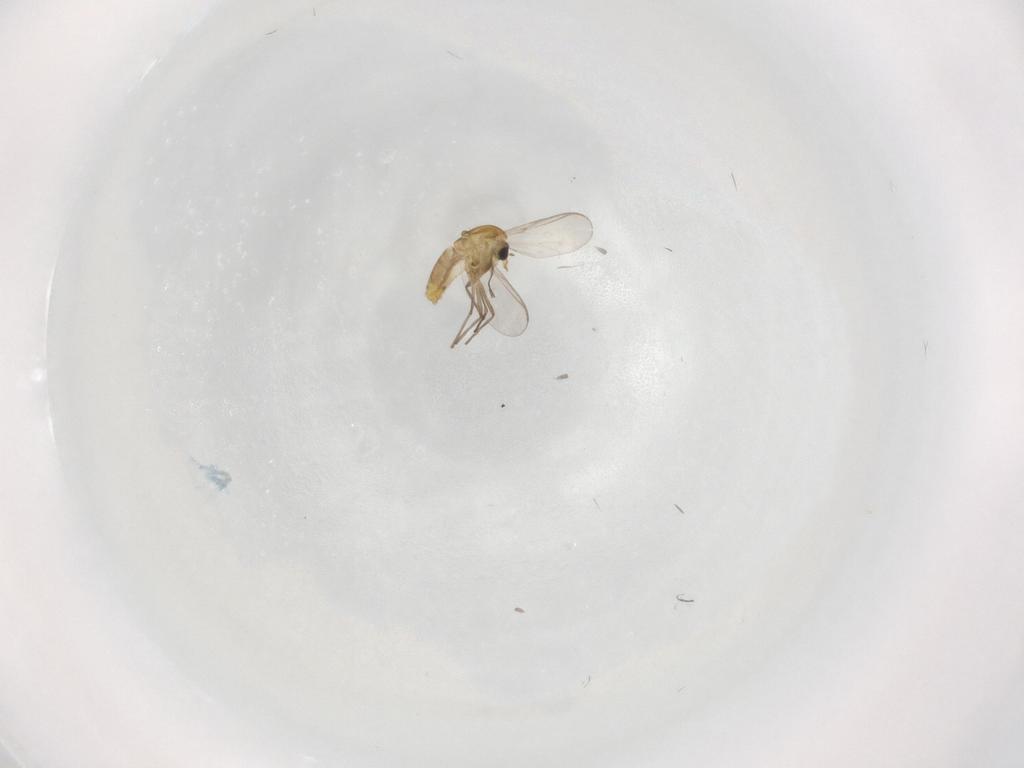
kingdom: Animalia
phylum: Arthropoda
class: Insecta
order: Diptera
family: Chironomidae
